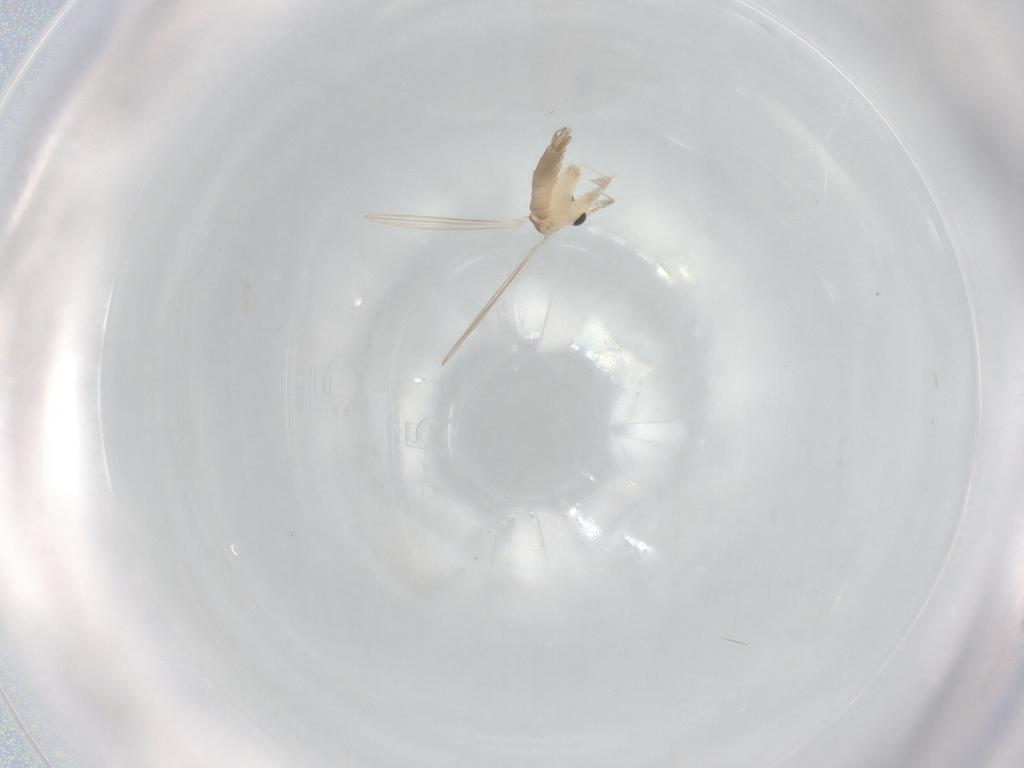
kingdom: Animalia
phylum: Arthropoda
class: Insecta
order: Diptera
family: Psychodidae
